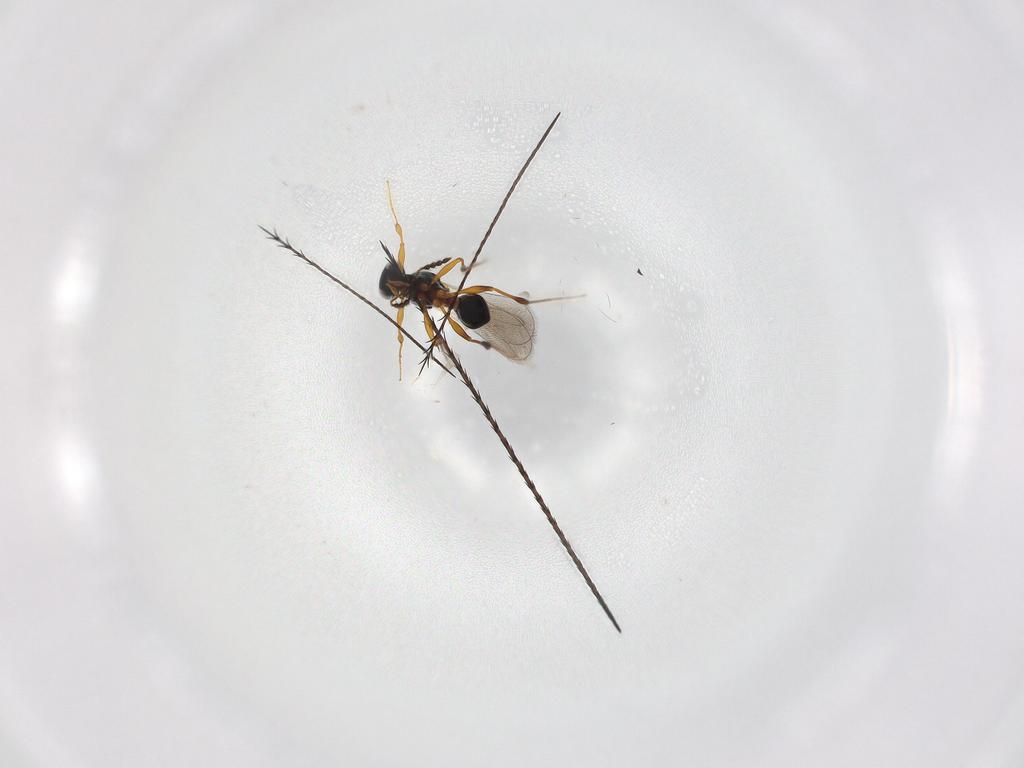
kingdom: Animalia
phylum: Arthropoda
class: Insecta
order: Hymenoptera
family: Platygastridae
